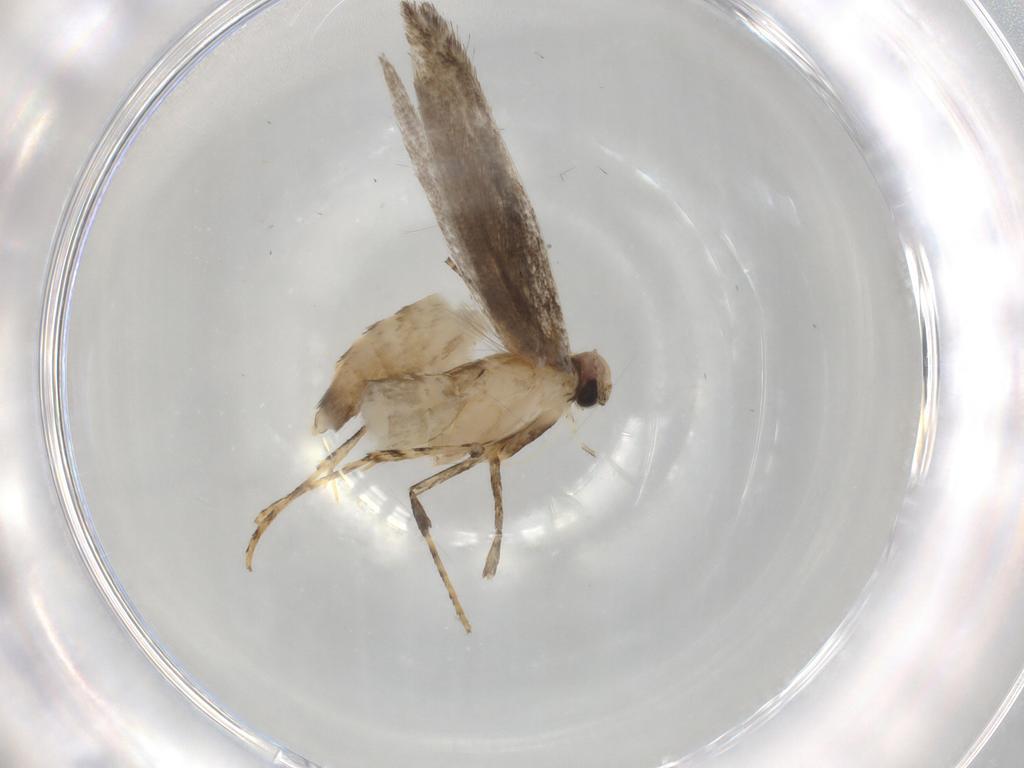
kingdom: Animalia
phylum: Arthropoda
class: Insecta
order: Lepidoptera
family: Gracillariidae
